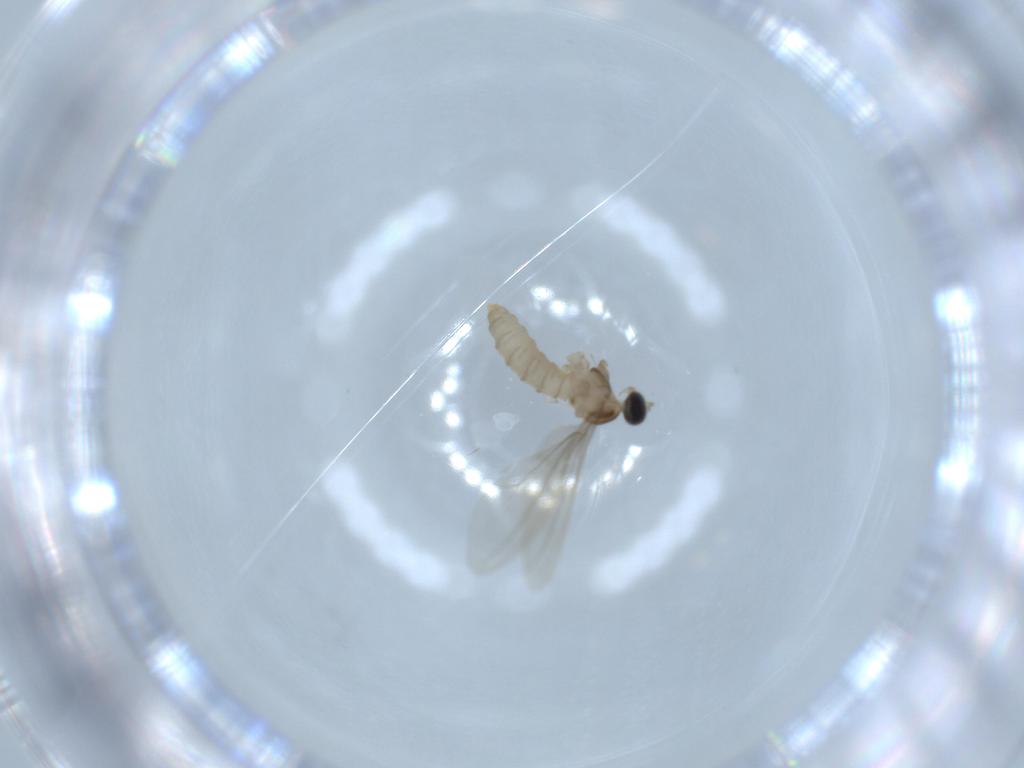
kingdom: Animalia
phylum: Arthropoda
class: Insecta
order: Diptera
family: Cecidomyiidae
